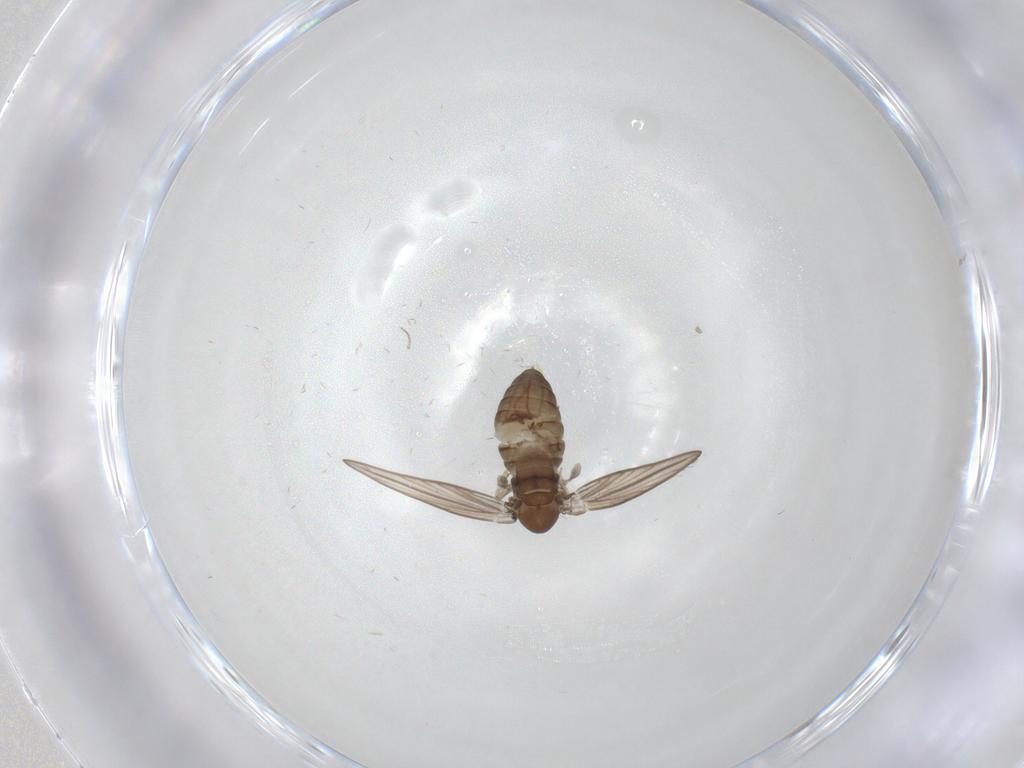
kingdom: Animalia
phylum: Arthropoda
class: Insecta
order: Diptera
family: Psychodidae
